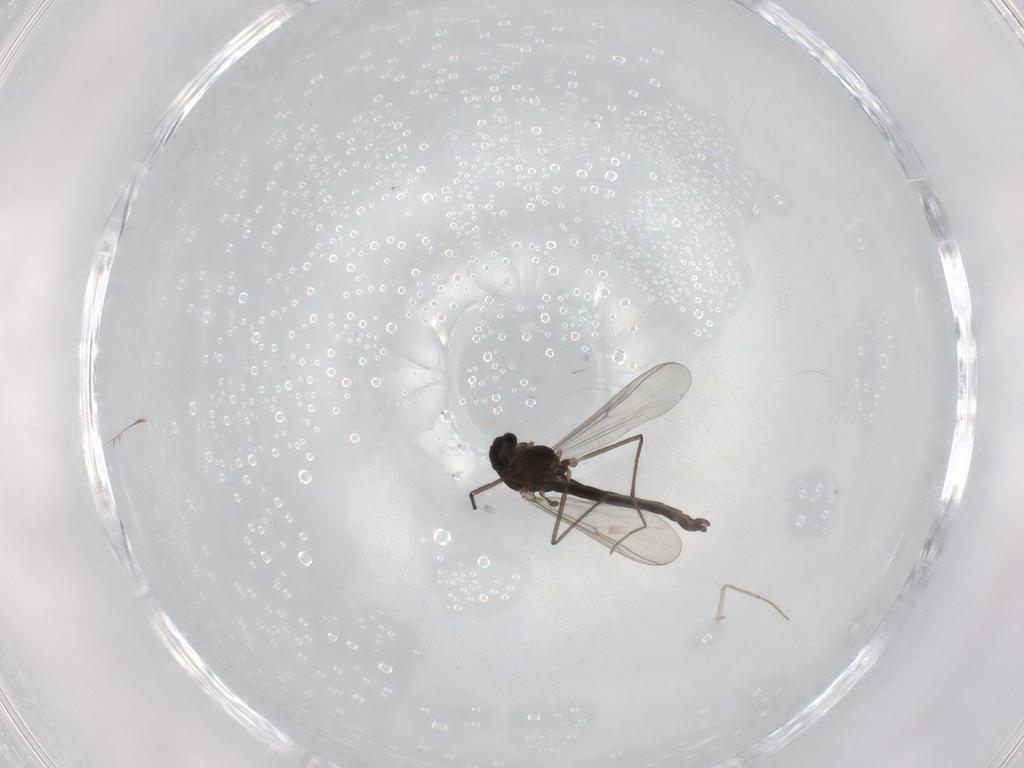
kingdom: Animalia
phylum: Arthropoda
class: Insecta
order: Diptera
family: Chironomidae
